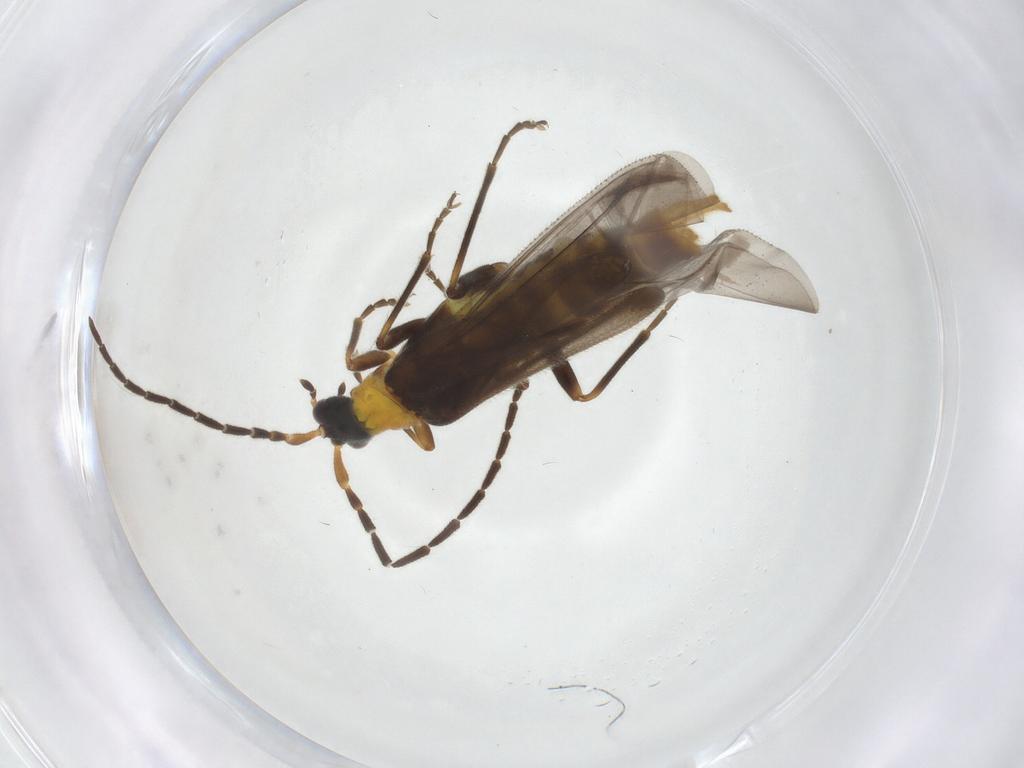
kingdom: Animalia
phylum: Arthropoda
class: Insecta
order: Coleoptera
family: Cantharidae
